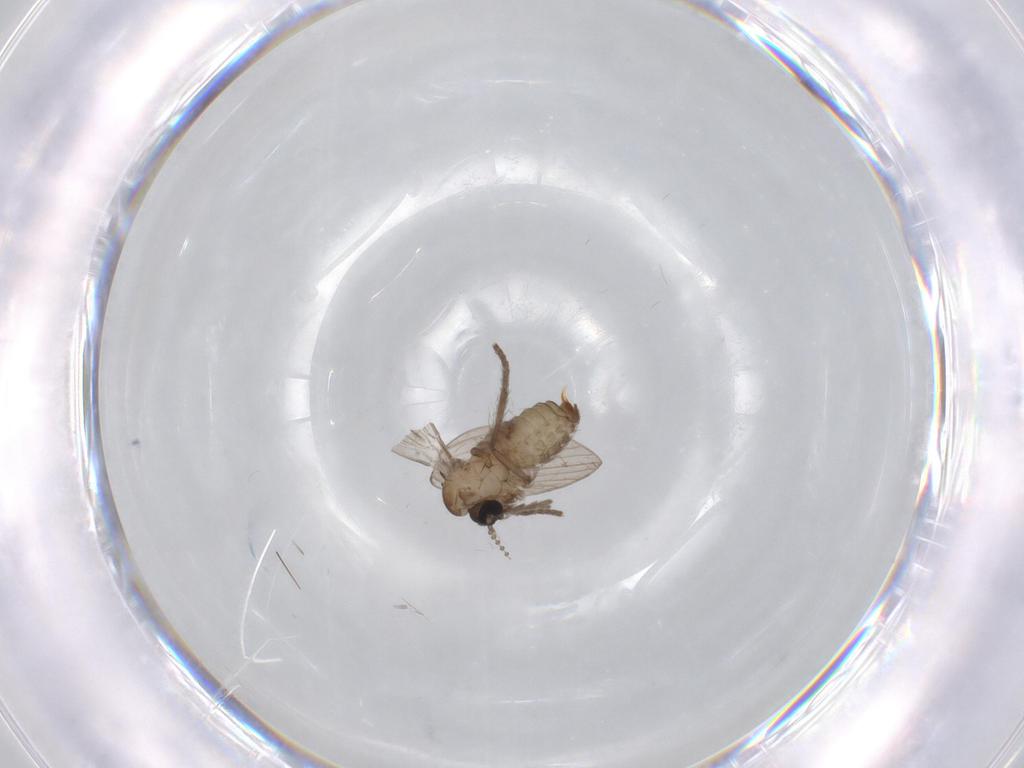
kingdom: Animalia
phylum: Arthropoda
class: Insecta
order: Diptera
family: Psychodidae
